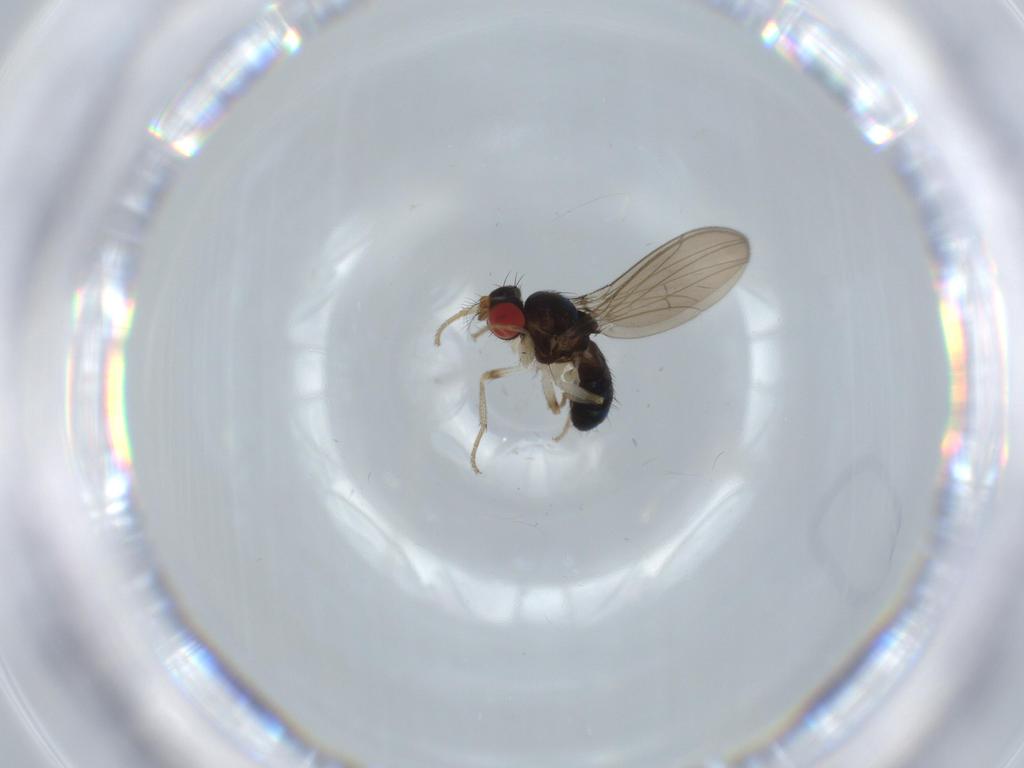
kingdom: Animalia
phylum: Arthropoda
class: Insecta
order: Diptera
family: Drosophilidae
